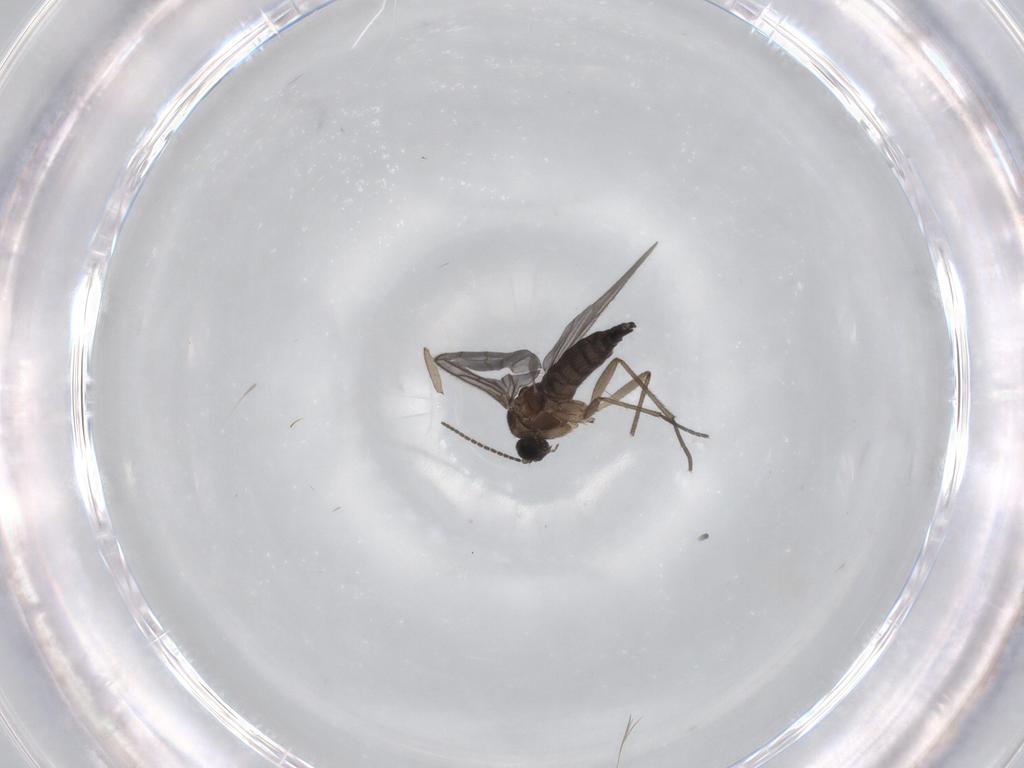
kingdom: Animalia
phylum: Arthropoda
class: Insecta
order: Diptera
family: Sciaridae
